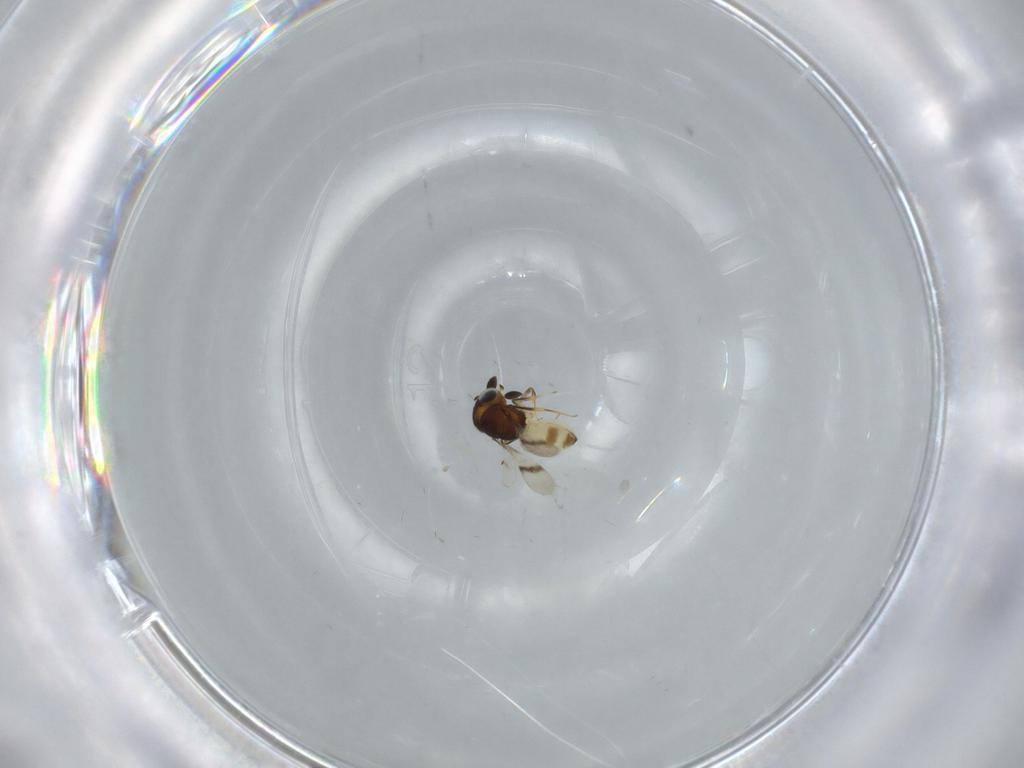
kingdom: Animalia
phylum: Arthropoda
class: Arachnida
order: Araneae
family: Pholcidae
